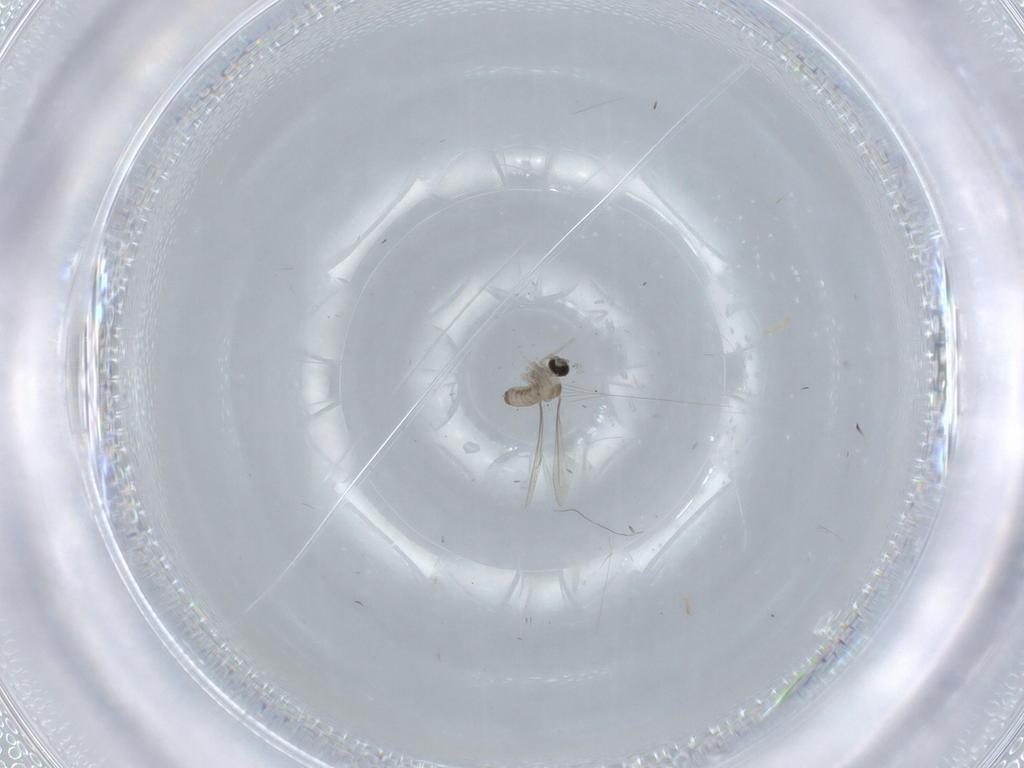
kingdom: Animalia
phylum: Arthropoda
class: Insecta
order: Diptera
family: Cecidomyiidae
